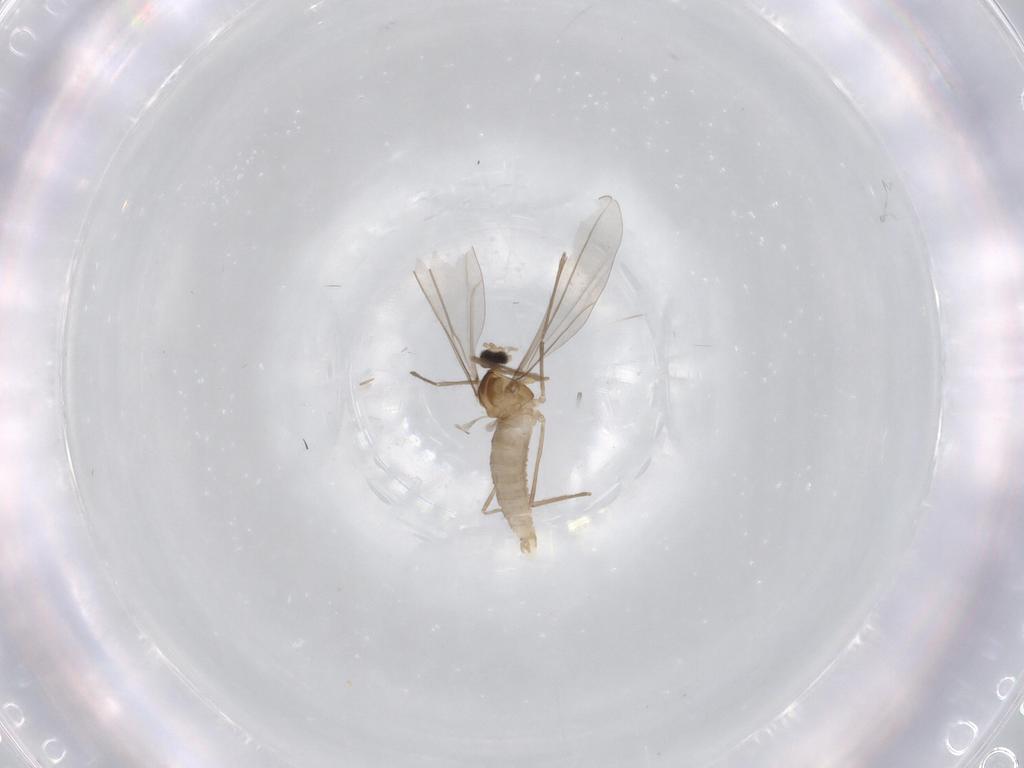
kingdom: Animalia
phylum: Arthropoda
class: Insecta
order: Diptera
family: Cecidomyiidae
